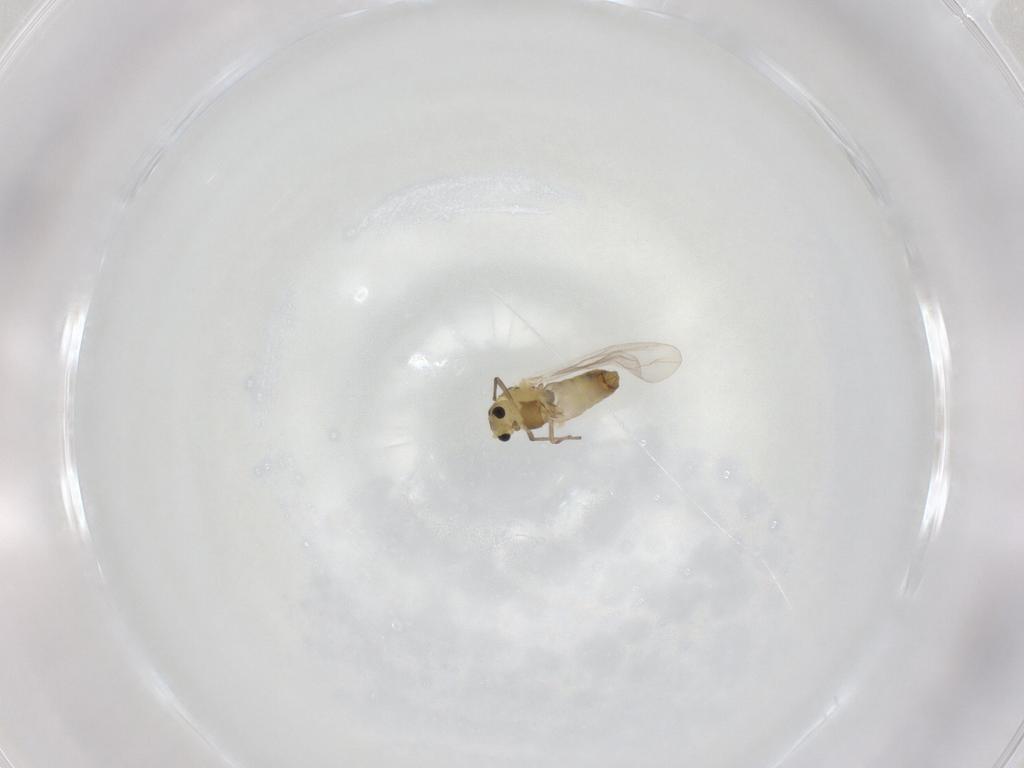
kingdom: Animalia
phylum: Arthropoda
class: Insecta
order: Diptera
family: Chironomidae
